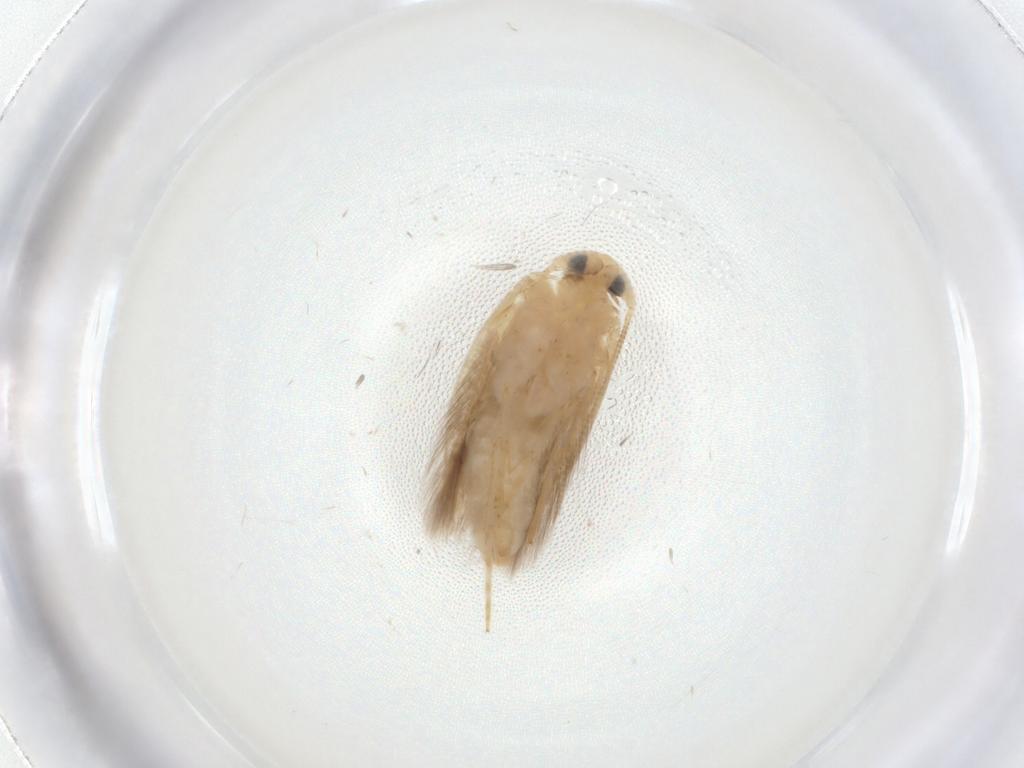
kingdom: Animalia
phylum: Arthropoda
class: Insecta
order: Lepidoptera
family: Opostegidae
